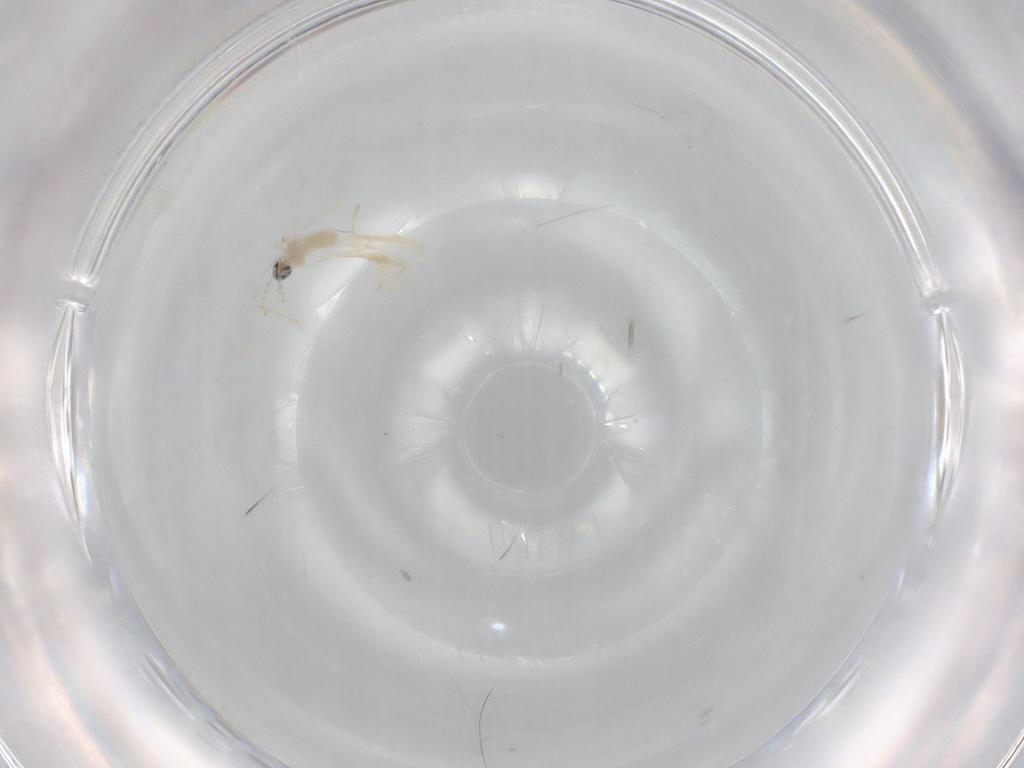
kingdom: Animalia
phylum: Arthropoda
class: Insecta
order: Diptera
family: Cecidomyiidae
